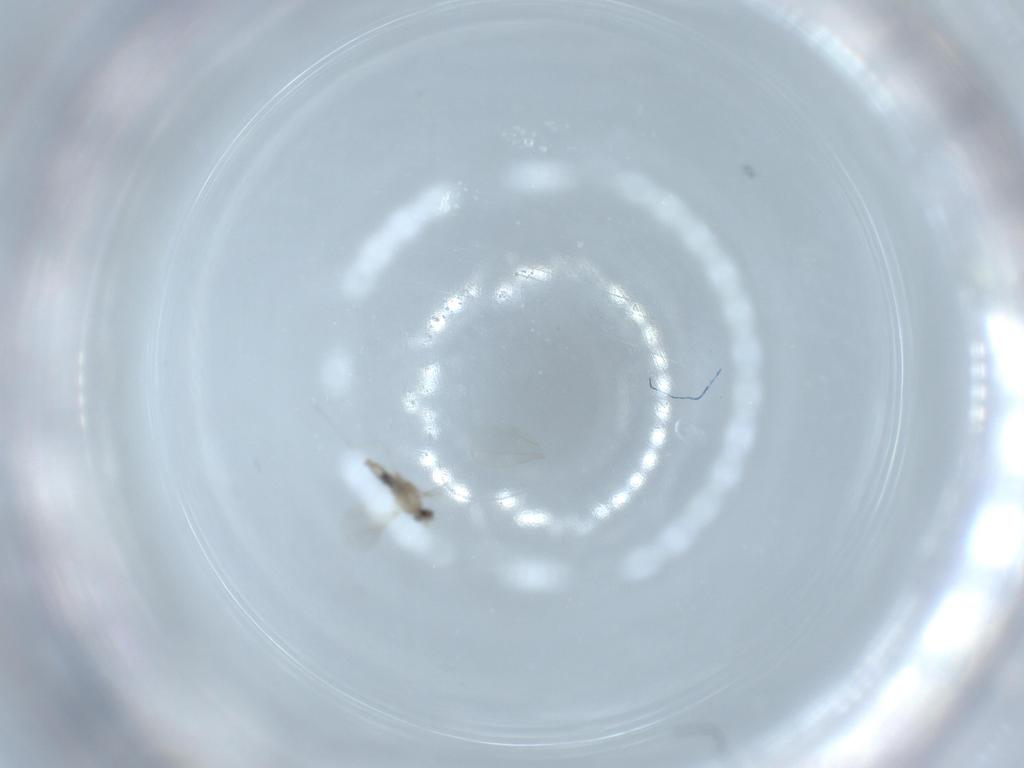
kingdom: Animalia
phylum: Arthropoda
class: Insecta
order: Diptera
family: Cecidomyiidae
